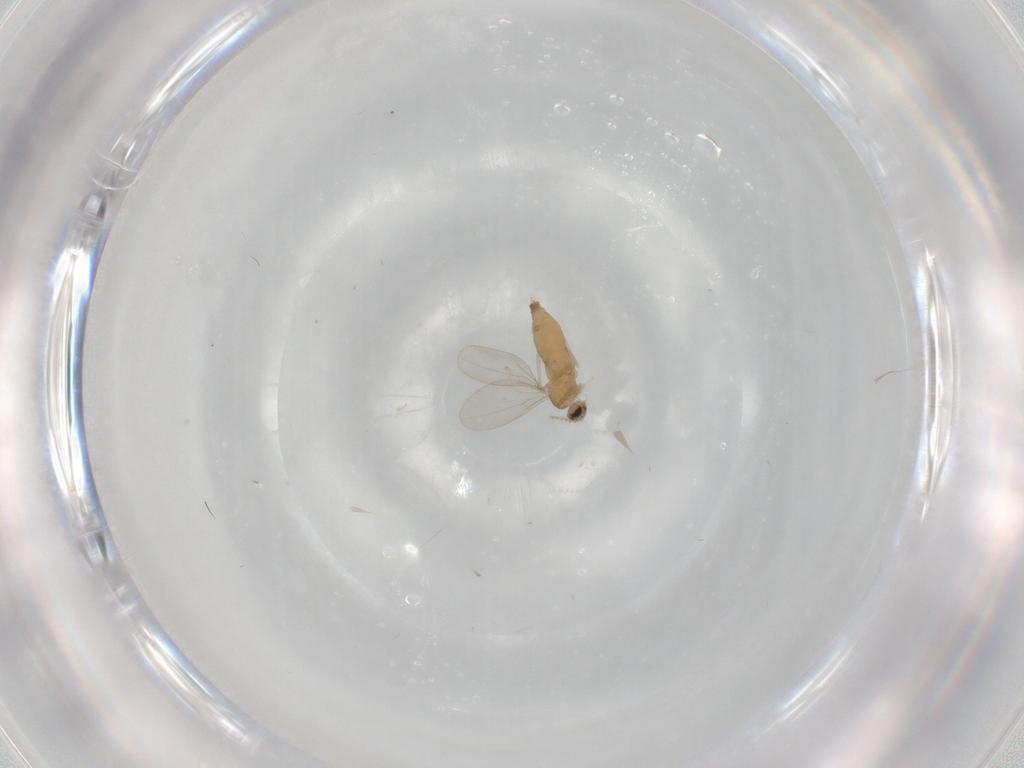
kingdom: Animalia
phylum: Arthropoda
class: Insecta
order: Diptera
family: Cecidomyiidae
